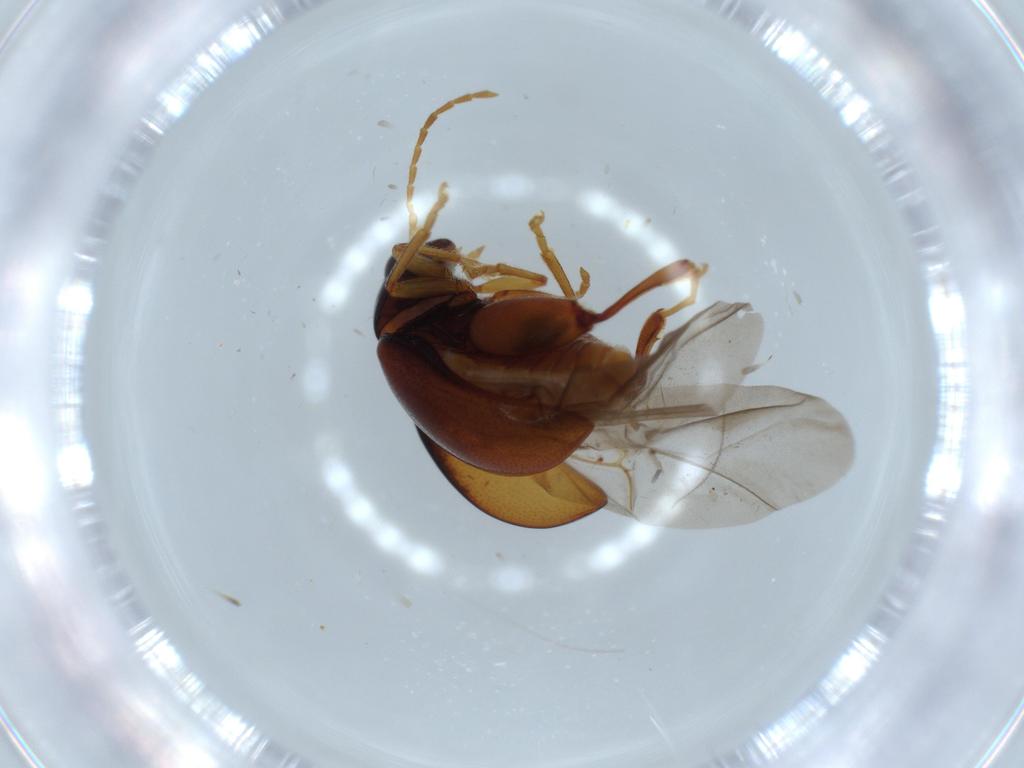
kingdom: Animalia
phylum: Arthropoda
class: Insecta
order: Coleoptera
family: Chrysomelidae
